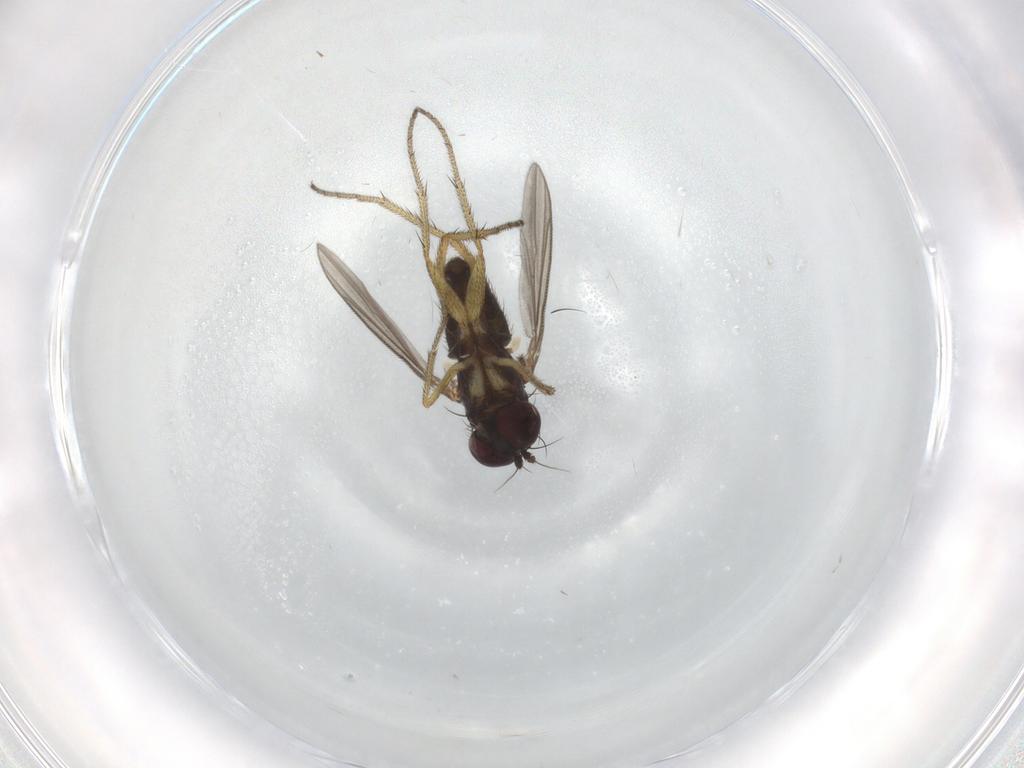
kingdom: Animalia
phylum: Arthropoda
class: Insecta
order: Diptera
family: Dolichopodidae
